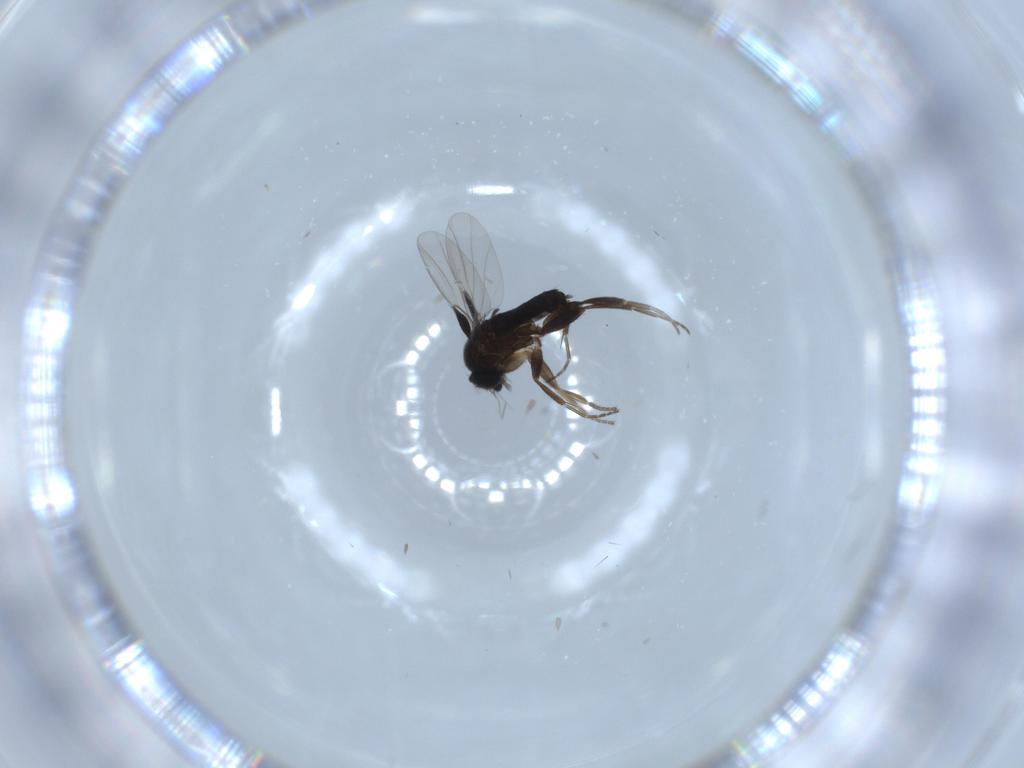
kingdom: Animalia
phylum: Arthropoda
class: Insecta
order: Diptera
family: Phoridae
